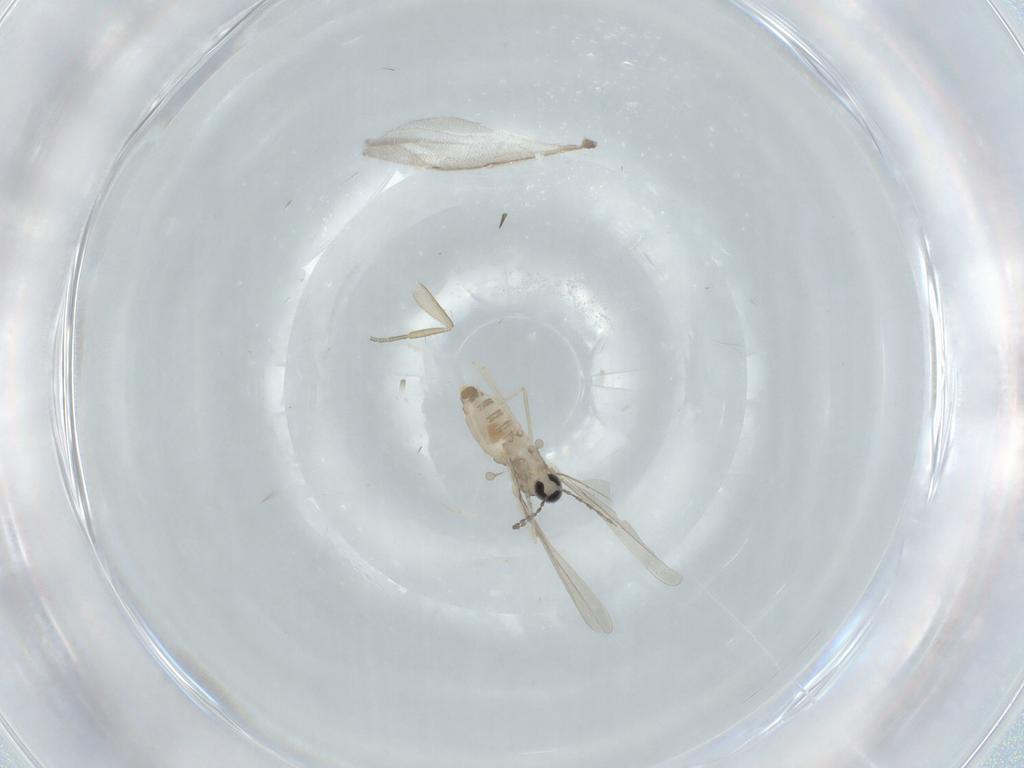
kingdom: Animalia
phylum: Arthropoda
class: Insecta
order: Diptera
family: Cecidomyiidae
